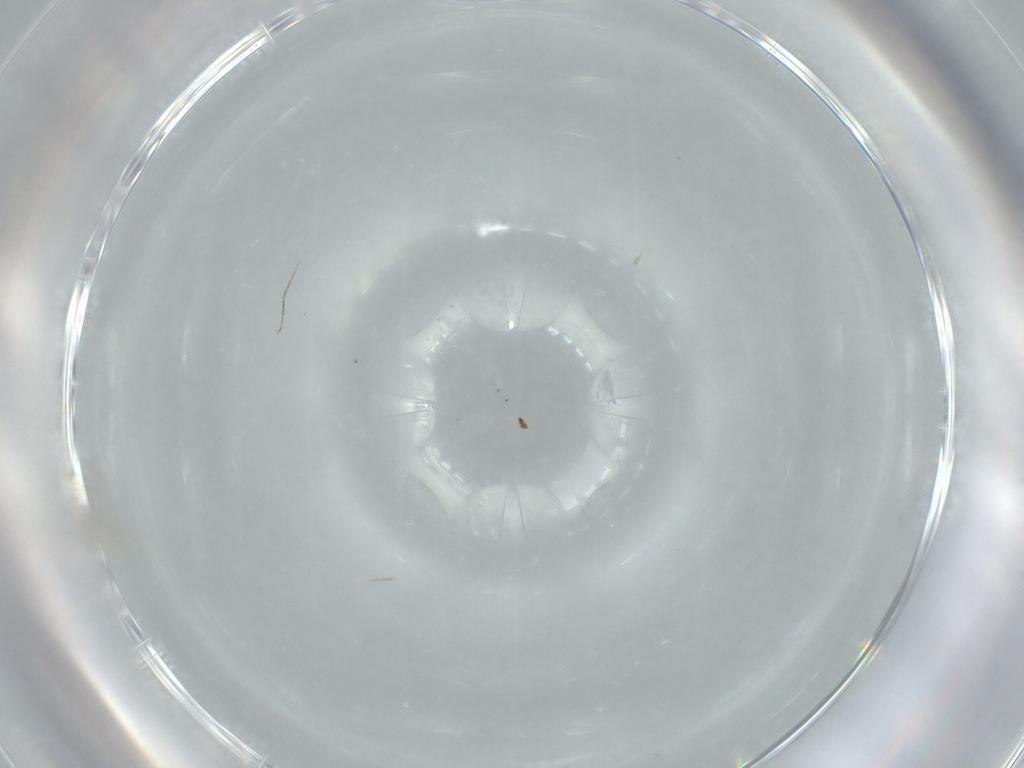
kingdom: Animalia
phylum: Arthropoda
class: Insecta
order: Diptera
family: Cecidomyiidae
